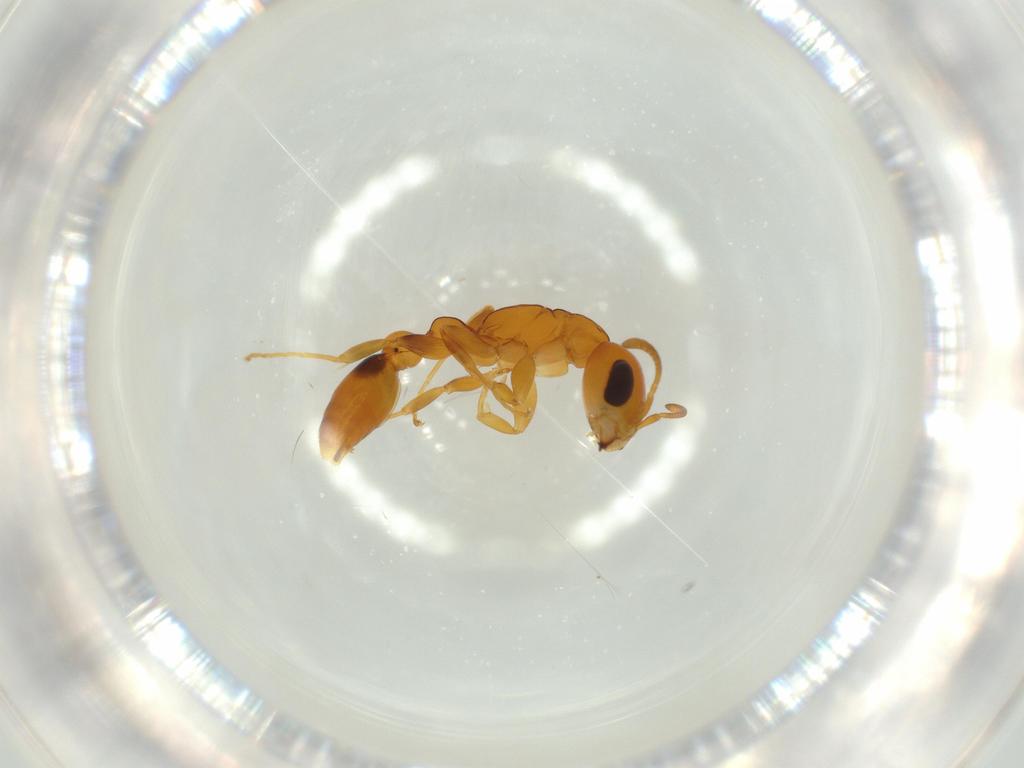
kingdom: Animalia
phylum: Arthropoda
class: Insecta
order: Hymenoptera
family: Formicidae
